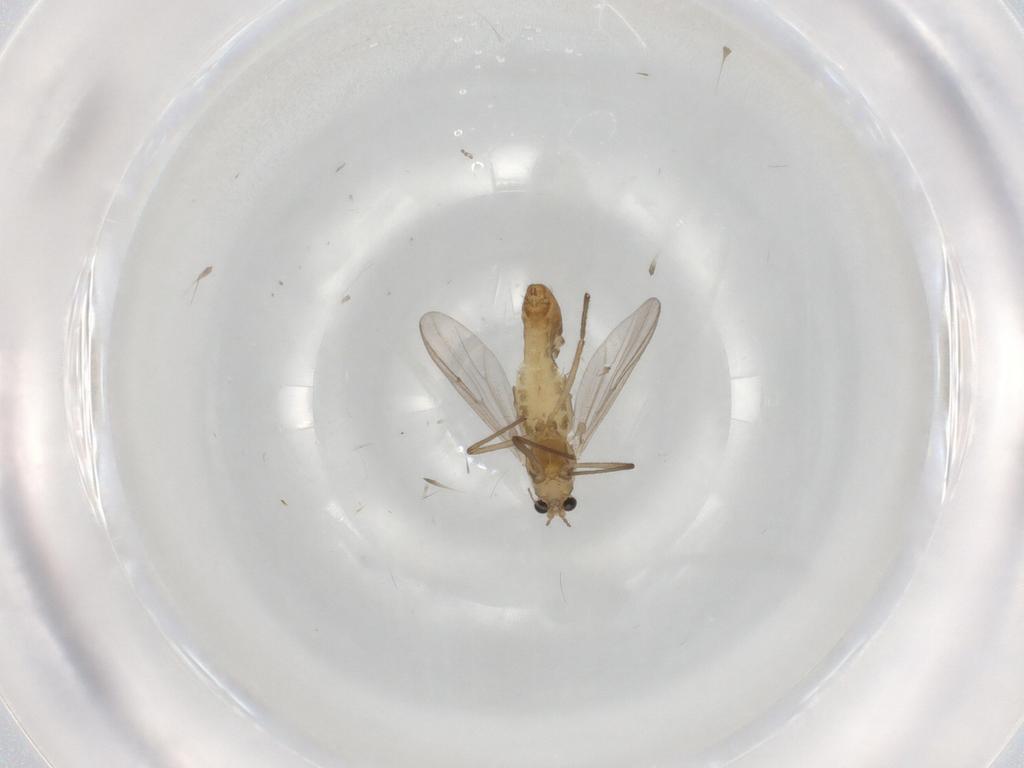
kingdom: Animalia
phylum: Arthropoda
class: Insecta
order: Diptera
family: Chironomidae
